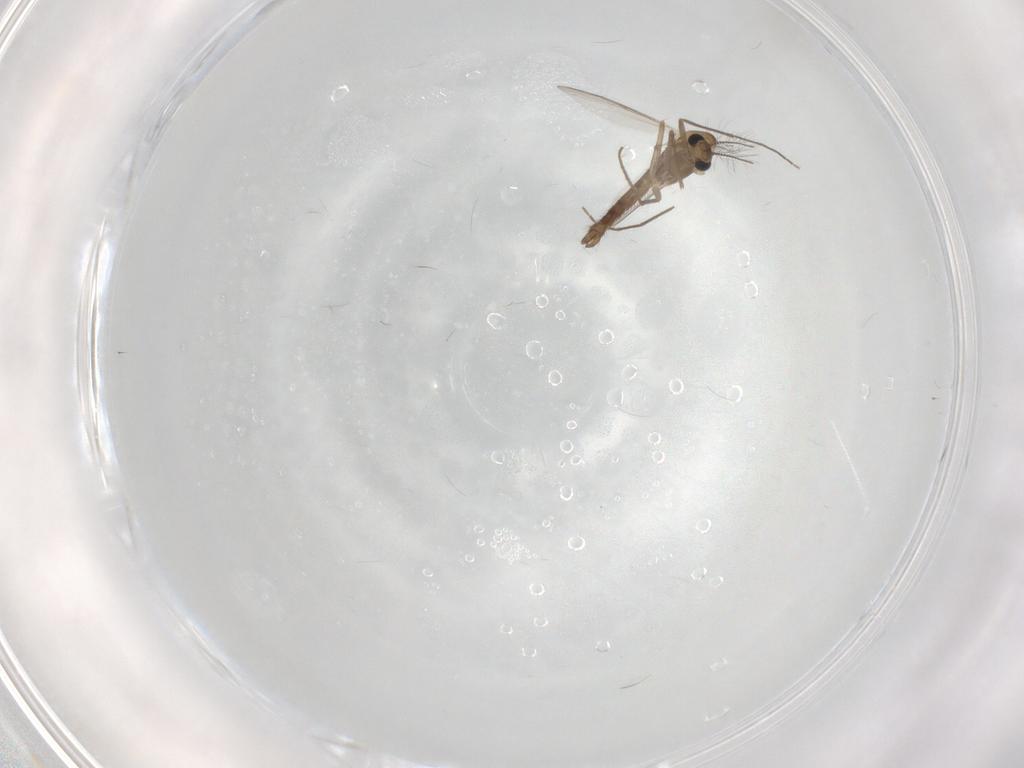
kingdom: Animalia
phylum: Arthropoda
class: Insecta
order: Diptera
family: Chironomidae
